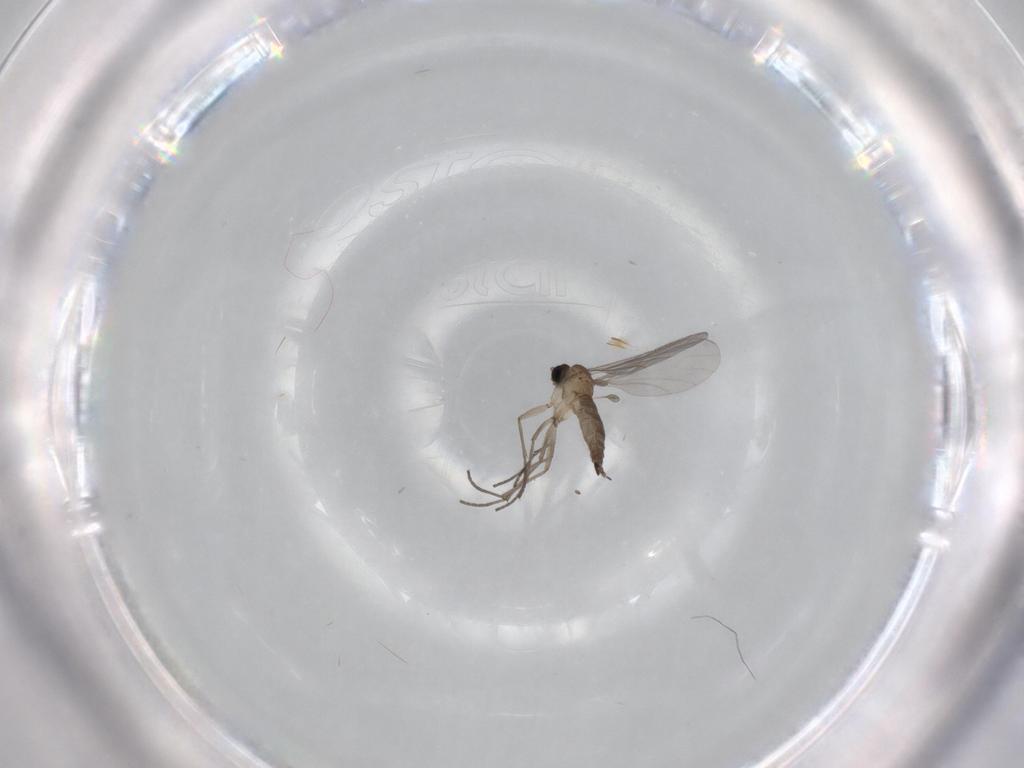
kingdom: Animalia
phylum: Arthropoda
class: Insecta
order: Diptera
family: Sciaridae
